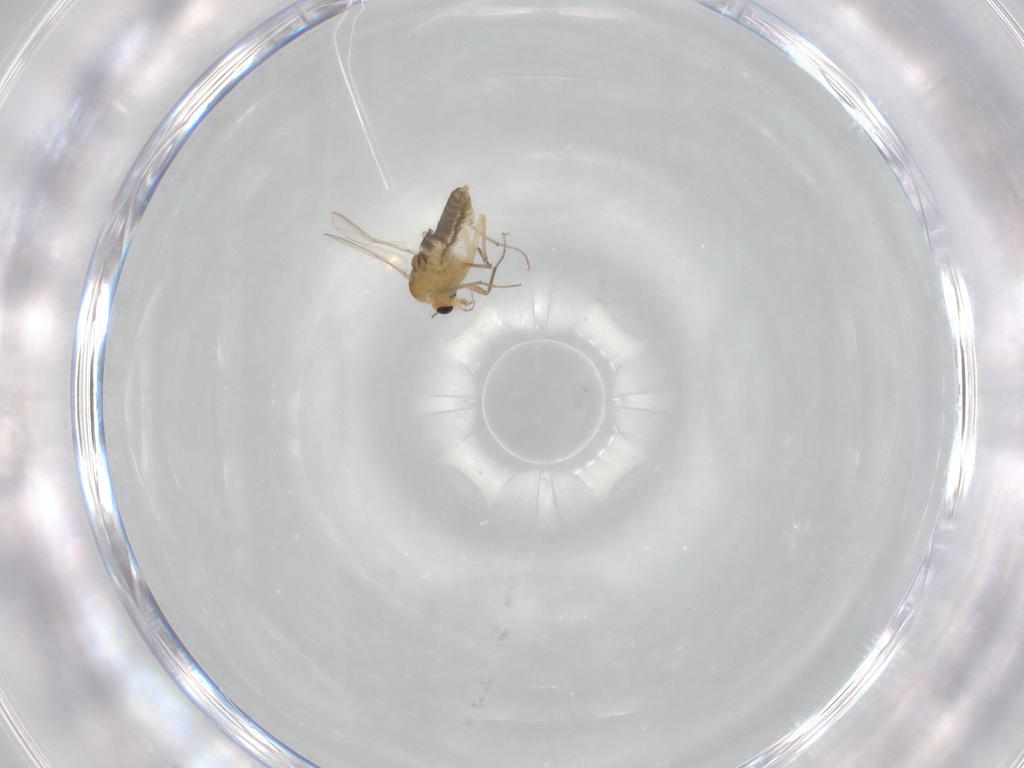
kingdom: Animalia
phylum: Arthropoda
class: Insecta
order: Diptera
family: Chironomidae
